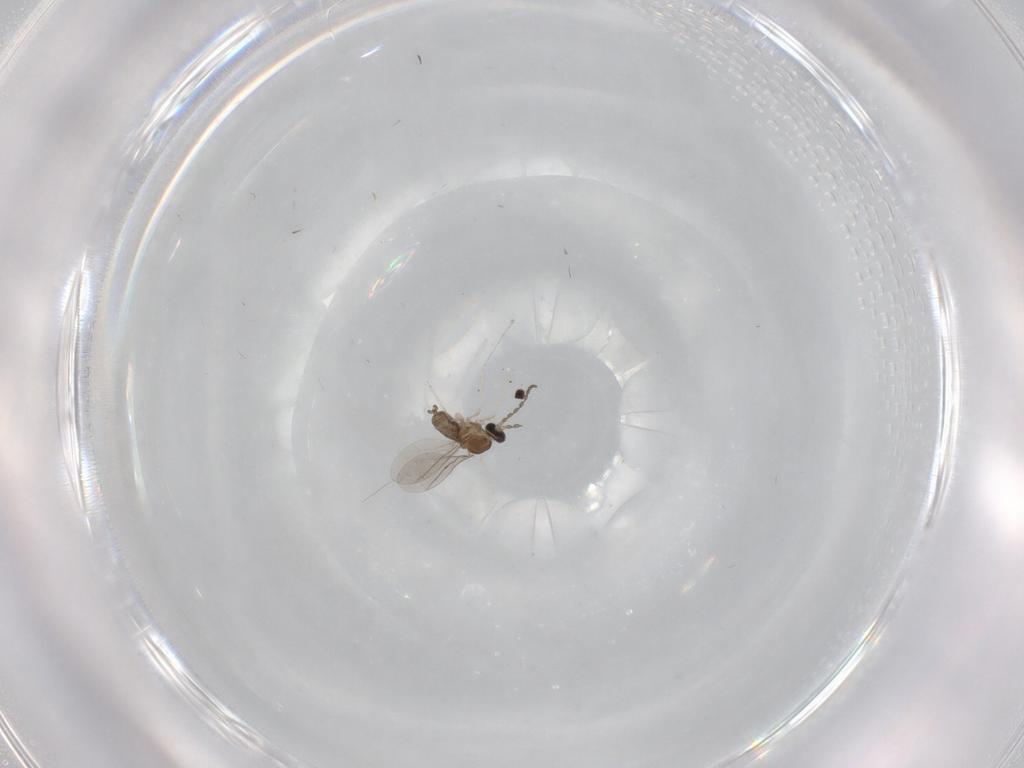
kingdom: Animalia
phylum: Arthropoda
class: Insecta
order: Diptera
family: Cecidomyiidae
